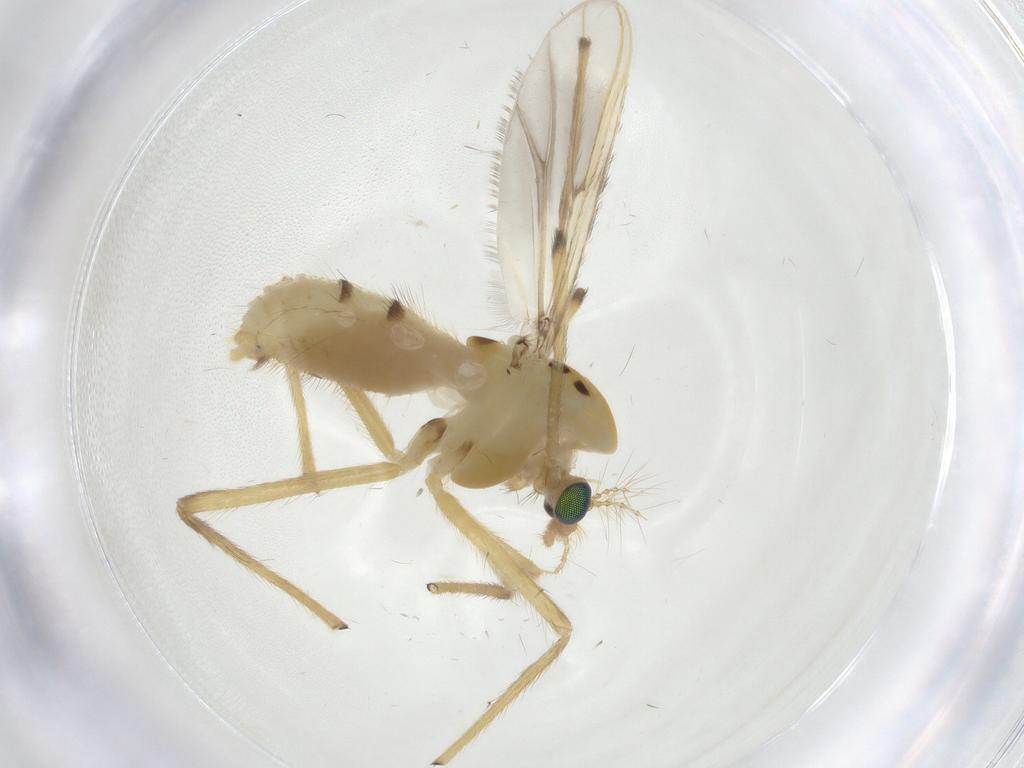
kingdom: Animalia
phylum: Arthropoda
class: Insecta
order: Diptera
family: Chironomidae
